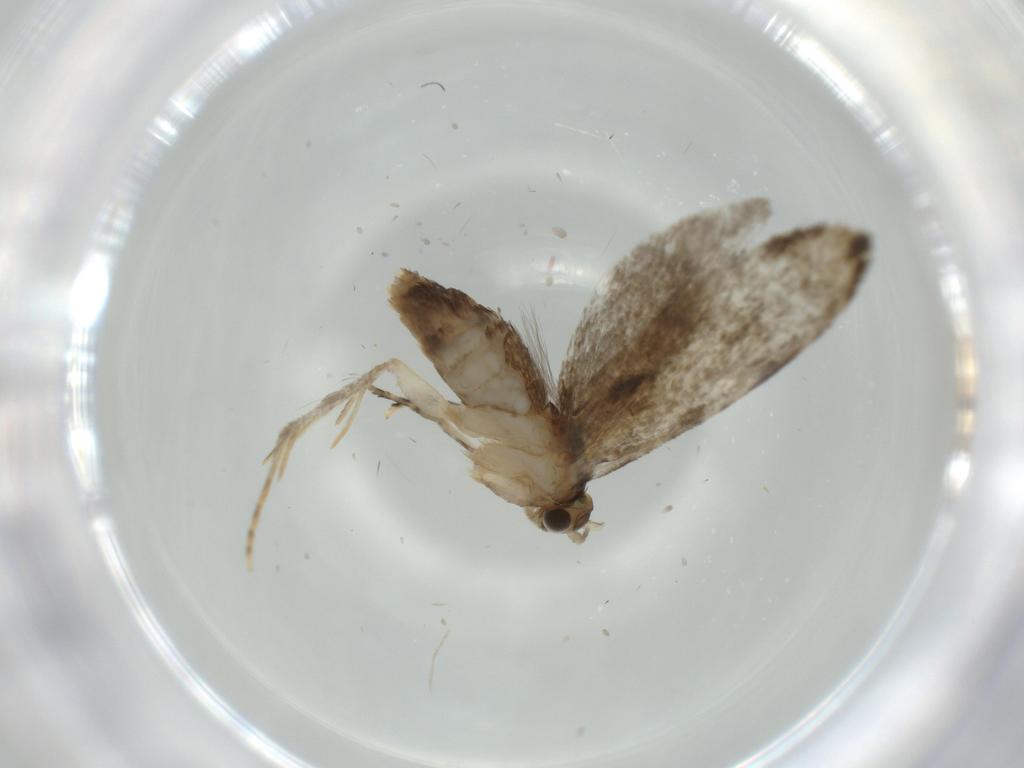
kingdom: Animalia
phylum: Arthropoda
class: Insecta
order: Lepidoptera
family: Tineidae
